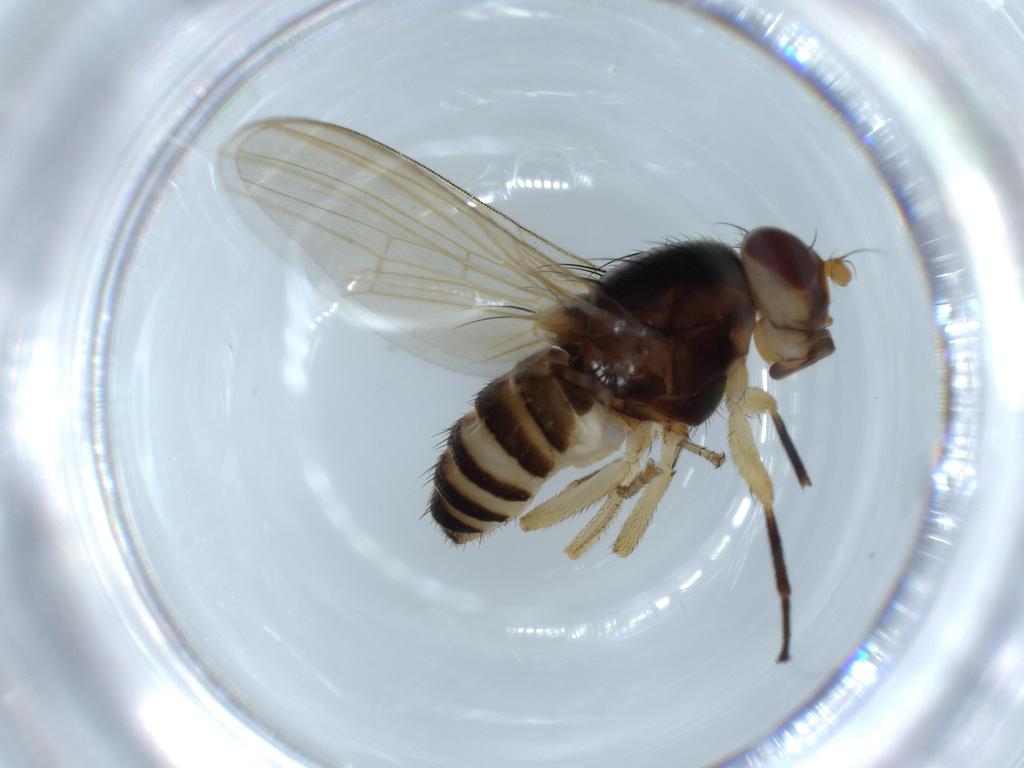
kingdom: Animalia
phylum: Arthropoda
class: Insecta
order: Diptera
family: Lauxaniidae
